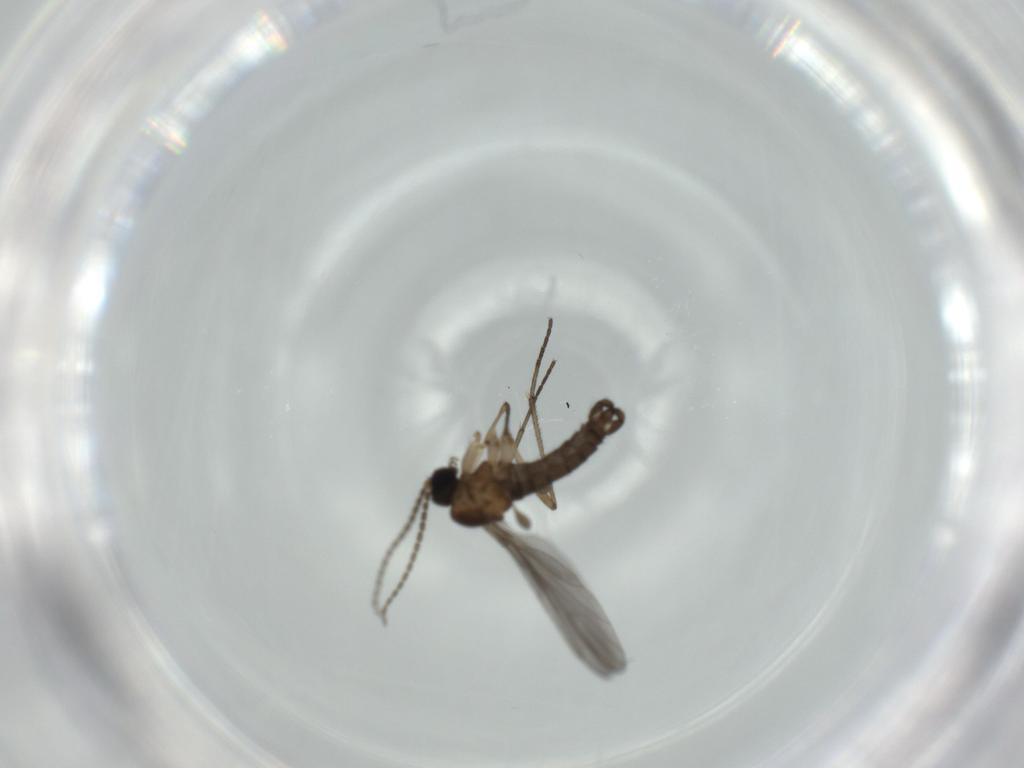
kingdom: Animalia
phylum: Arthropoda
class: Insecta
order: Diptera
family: Sciaridae
